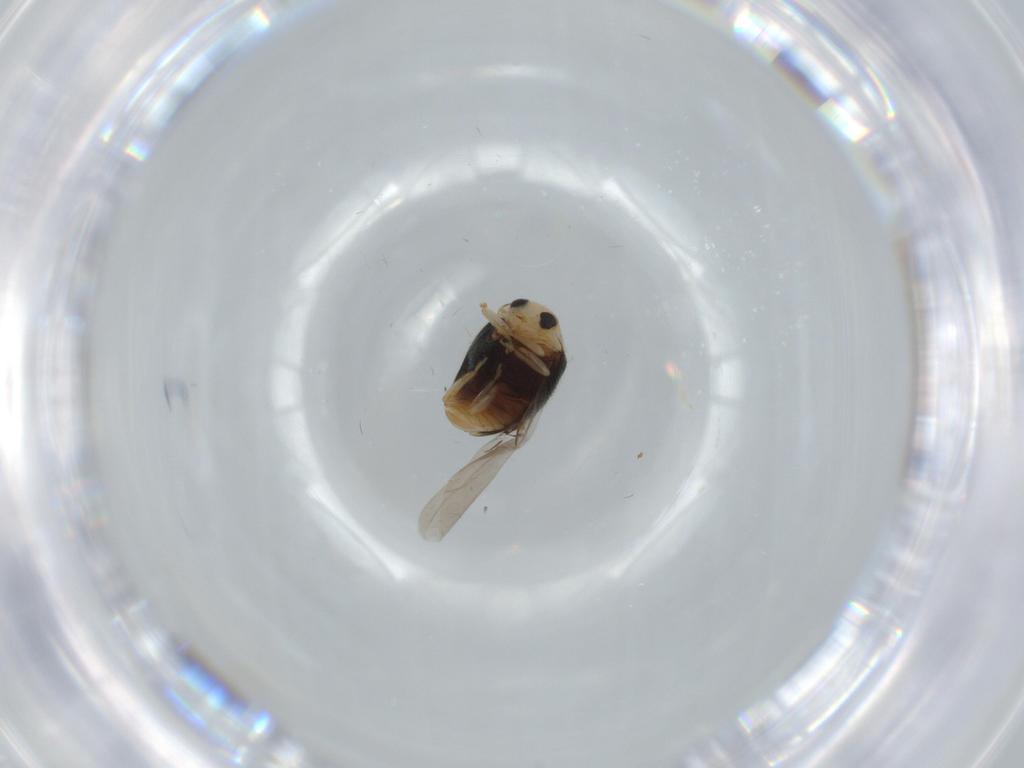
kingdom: Animalia
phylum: Arthropoda
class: Insecta
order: Coleoptera
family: Coccinellidae
